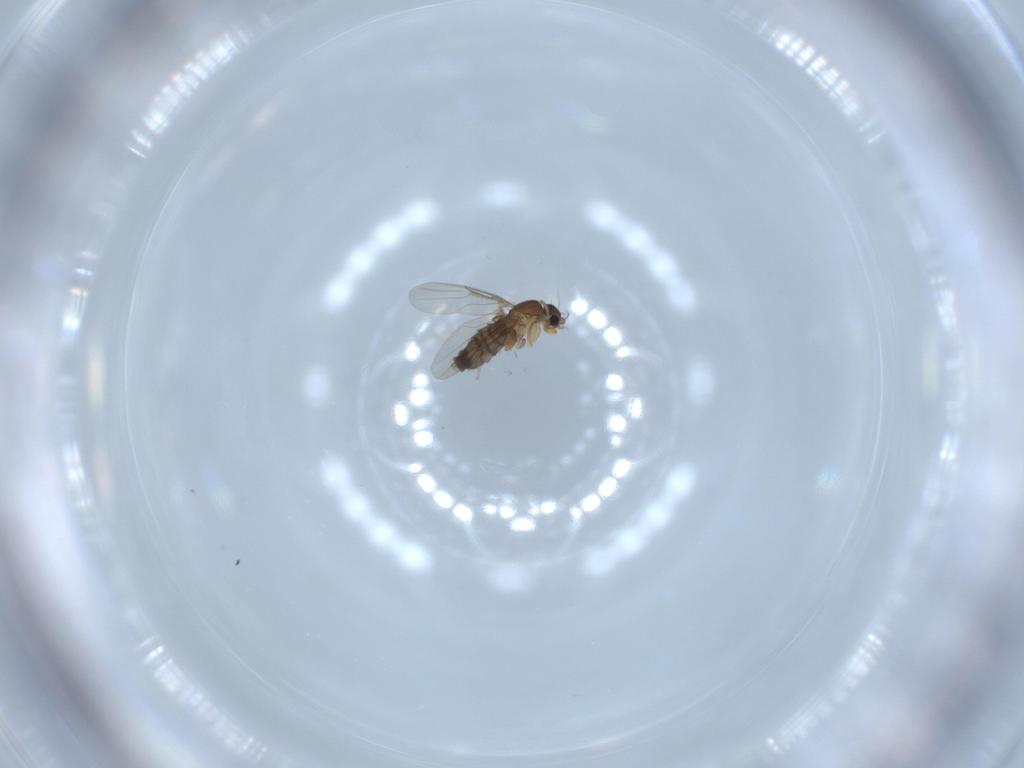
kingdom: Animalia
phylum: Arthropoda
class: Insecta
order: Diptera
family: Phoridae
